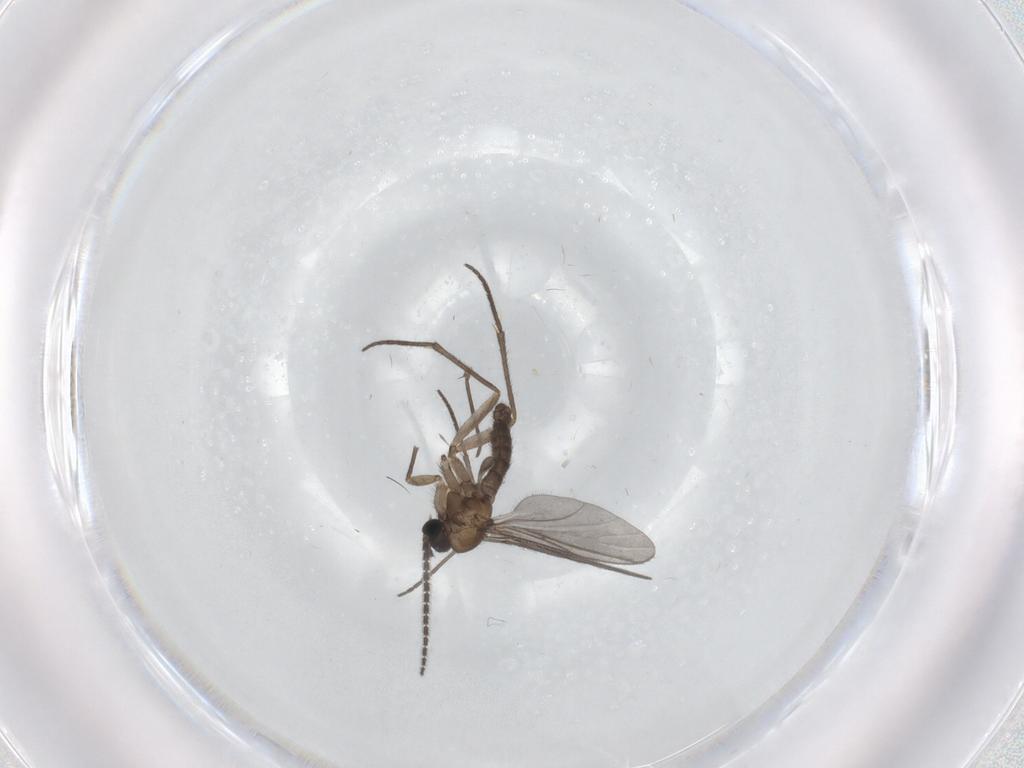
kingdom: Animalia
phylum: Arthropoda
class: Insecta
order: Diptera
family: Sciaridae
